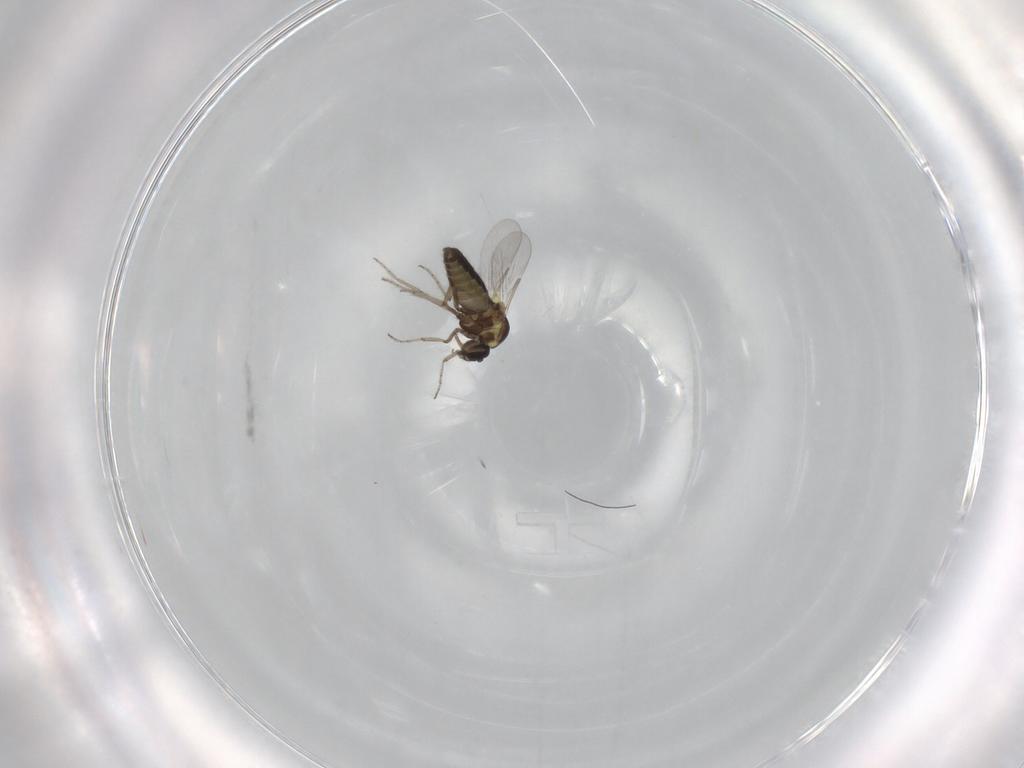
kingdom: Animalia
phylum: Arthropoda
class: Insecta
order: Diptera
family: Ceratopogonidae
